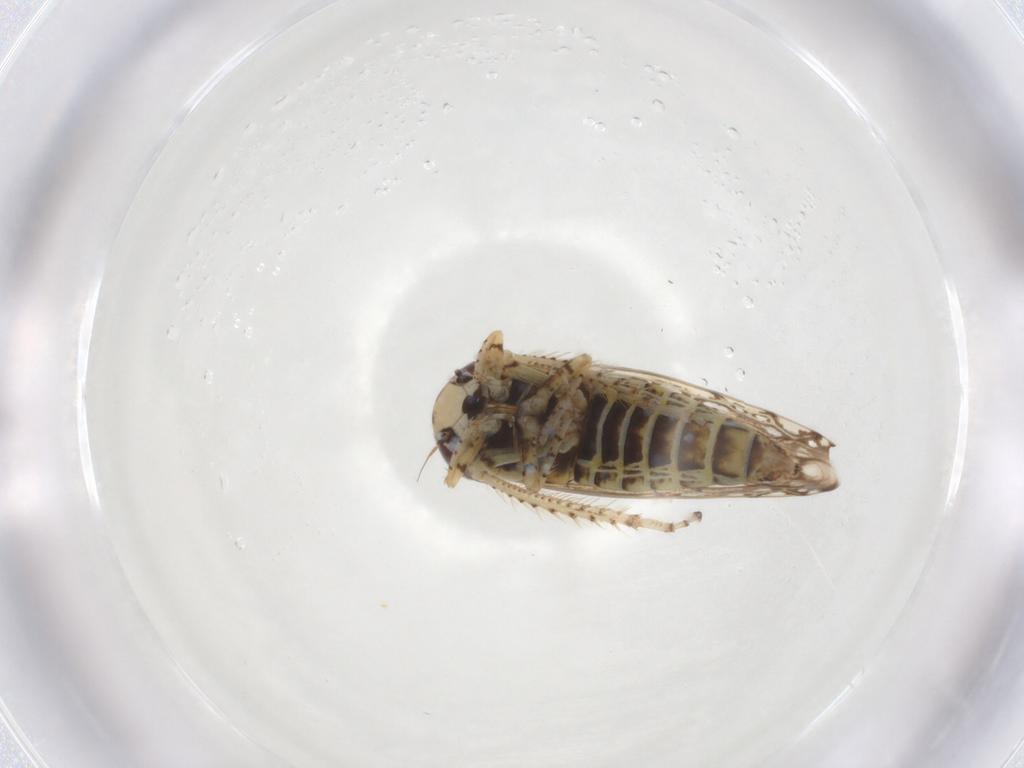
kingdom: Animalia
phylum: Arthropoda
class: Insecta
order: Hemiptera
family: Cicadellidae
